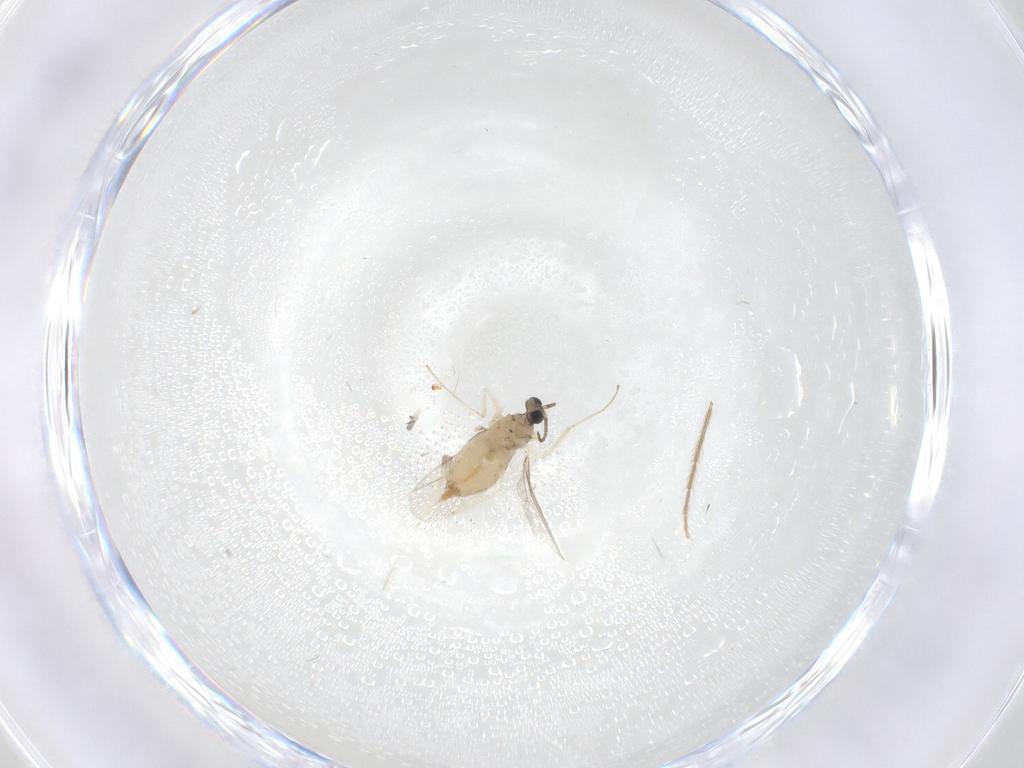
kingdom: Animalia
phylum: Arthropoda
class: Insecta
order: Diptera
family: Cecidomyiidae
